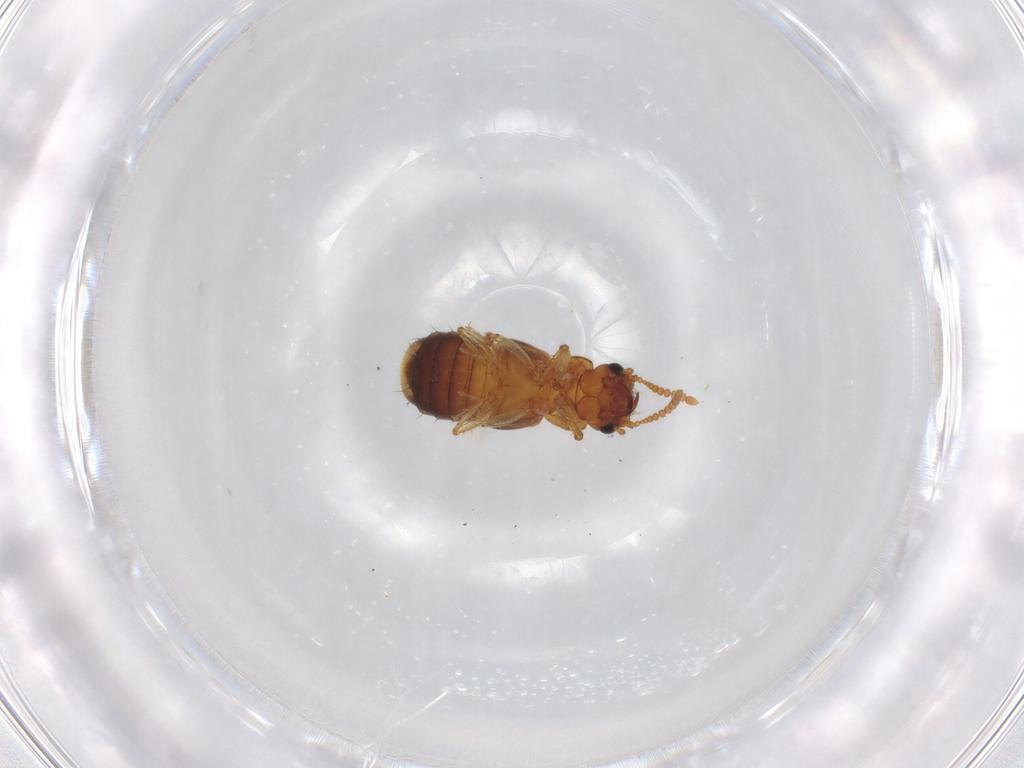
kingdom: Animalia
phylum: Arthropoda
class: Insecta
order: Coleoptera
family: Staphylinidae
